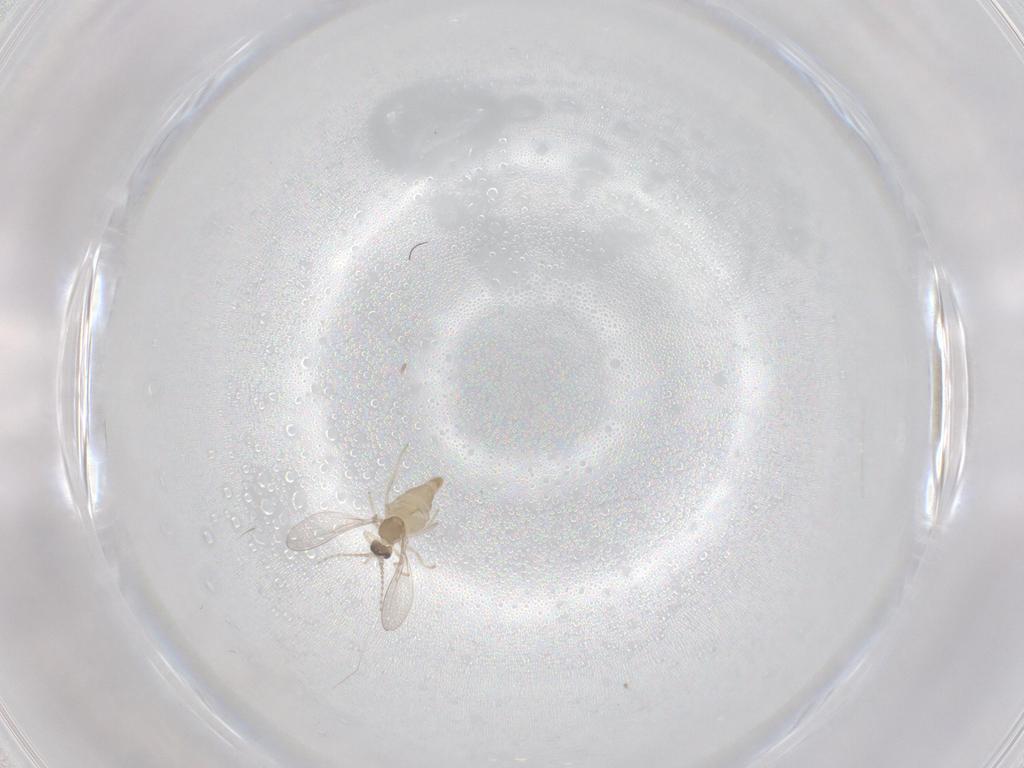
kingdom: Animalia
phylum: Arthropoda
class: Insecta
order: Diptera
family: Cecidomyiidae
